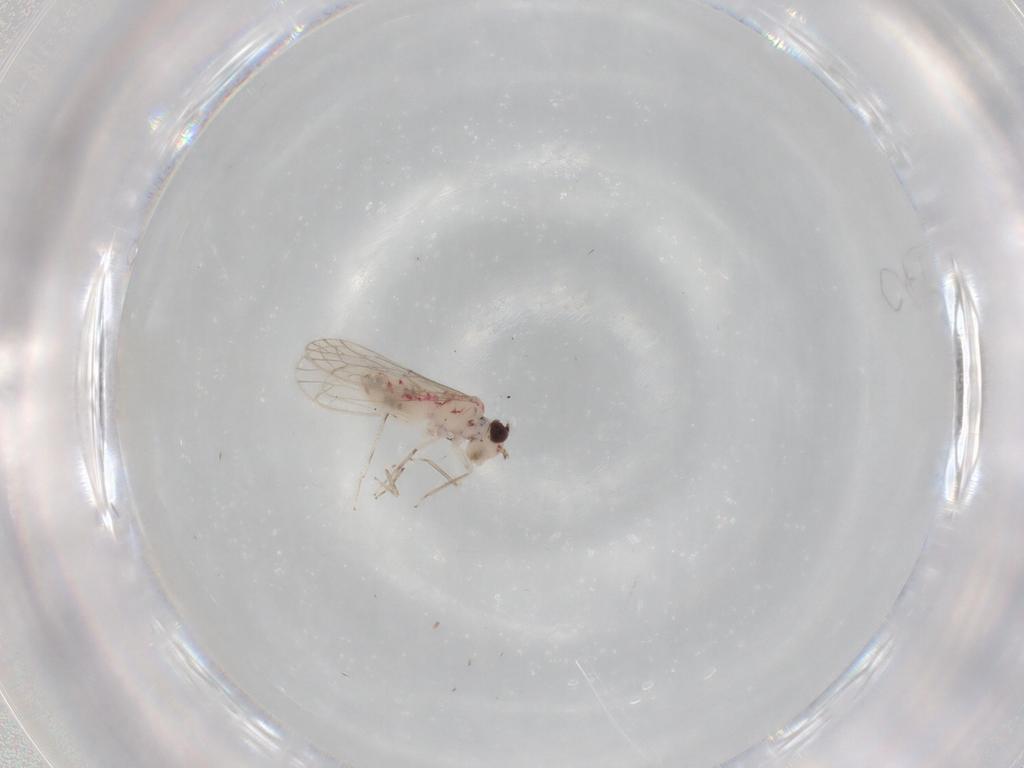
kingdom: Animalia
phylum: Arthropoda
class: Insecta
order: Psocodea
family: Caeciliusidae
